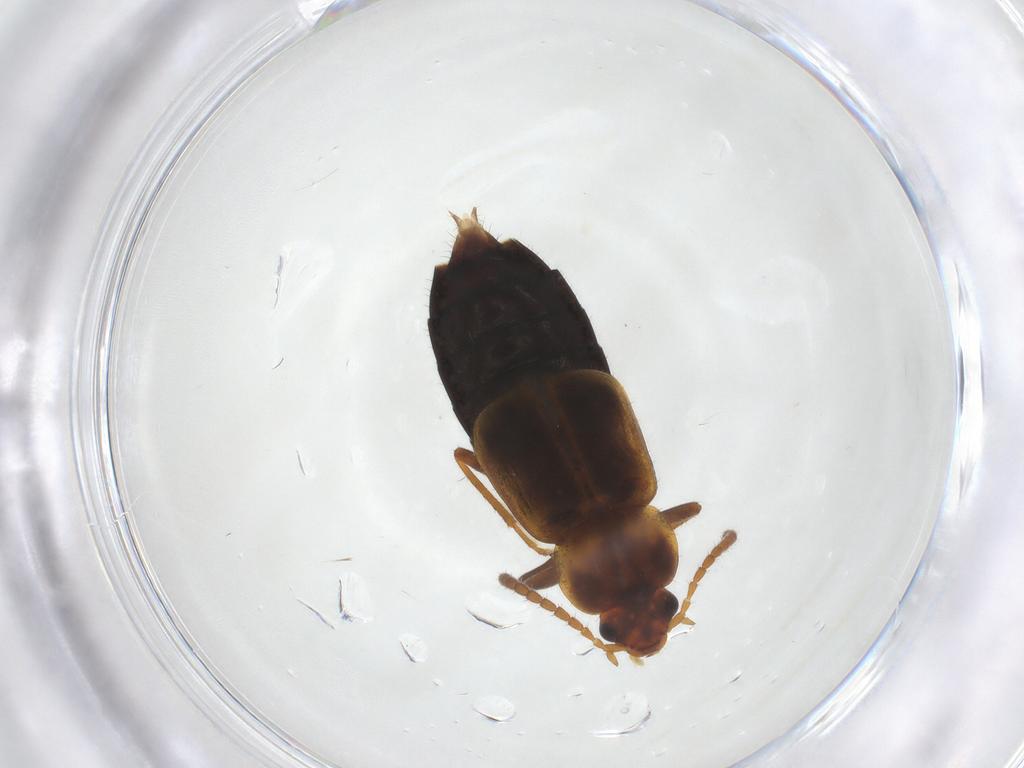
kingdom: Animalia
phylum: Arthropoda
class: Insecta
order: Coleoptera
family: Staphylinidae
